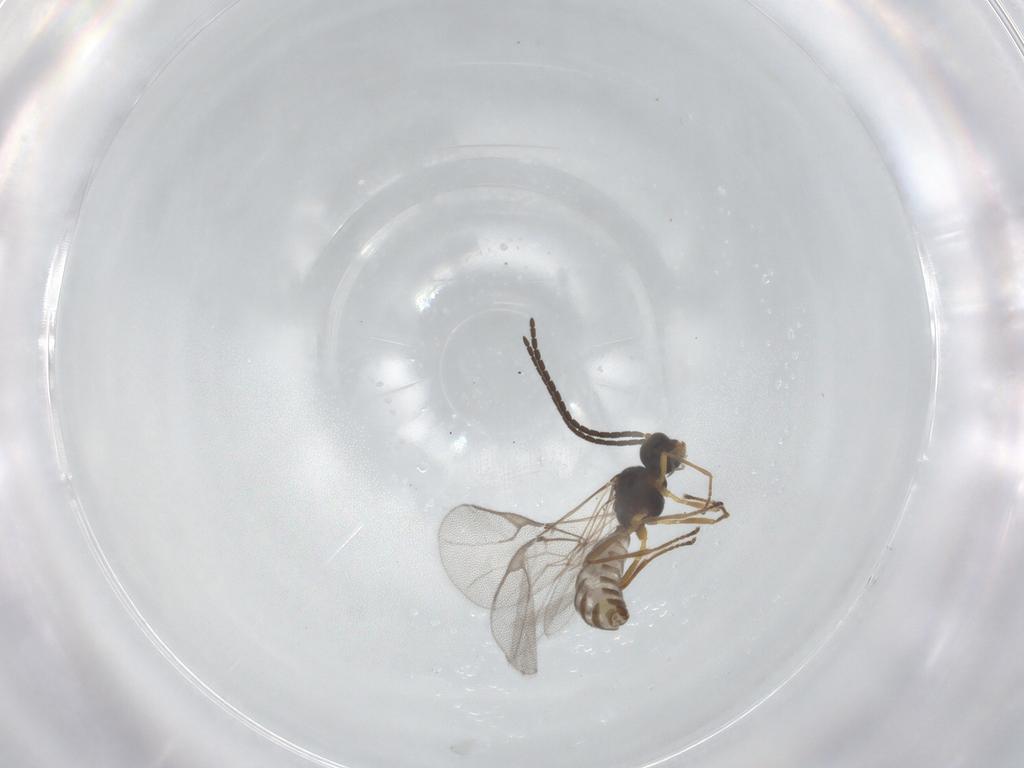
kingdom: Animalia
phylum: Arthropoda
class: Insecta
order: Hymenoptera
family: Braconidae
